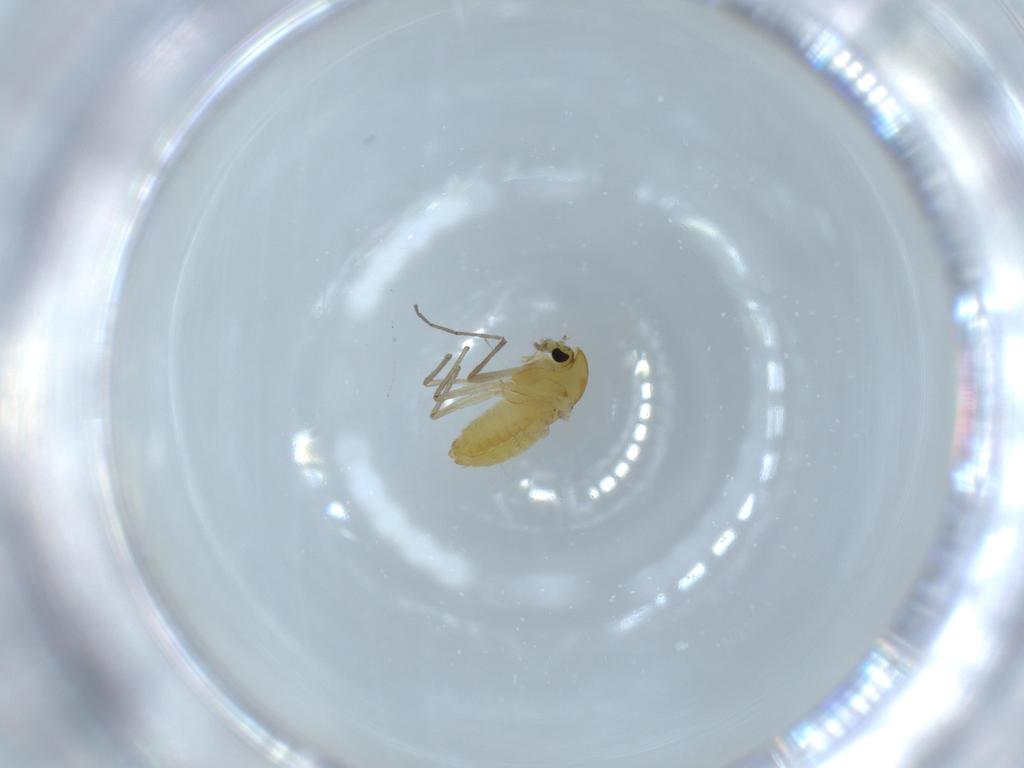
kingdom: Animalia
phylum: Arthropoda
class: Insecta
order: Diptera
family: Chironomidae
